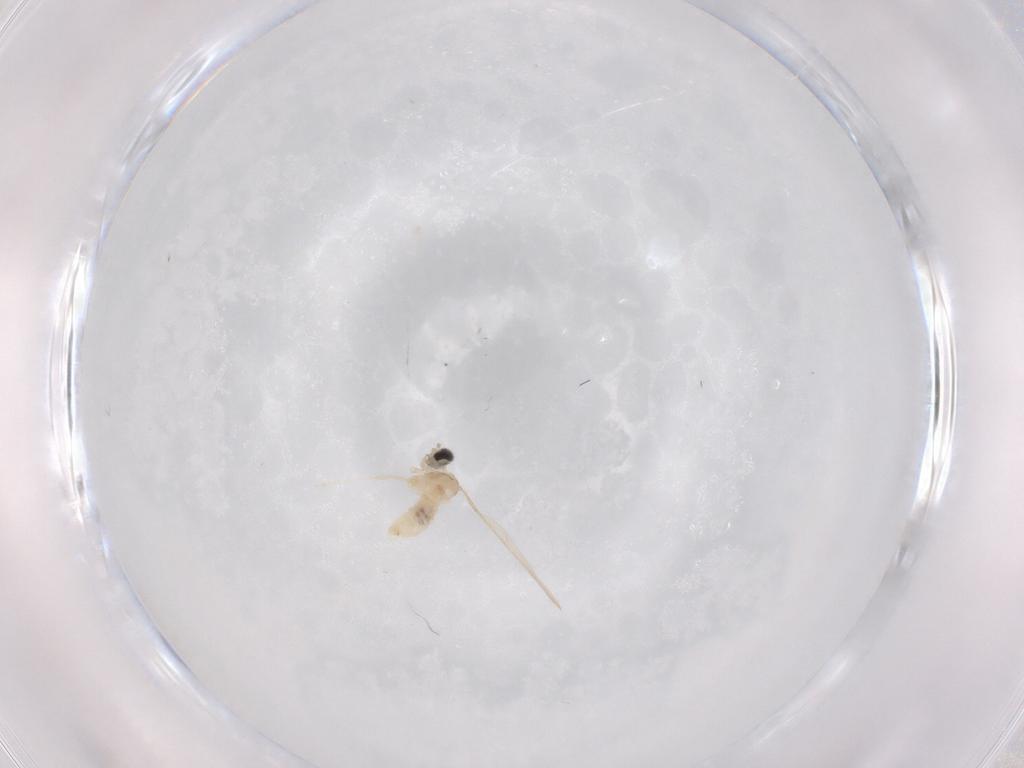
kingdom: Animalia
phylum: Arthropoda
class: Insecta
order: Diptera
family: Cecidomyiidae
